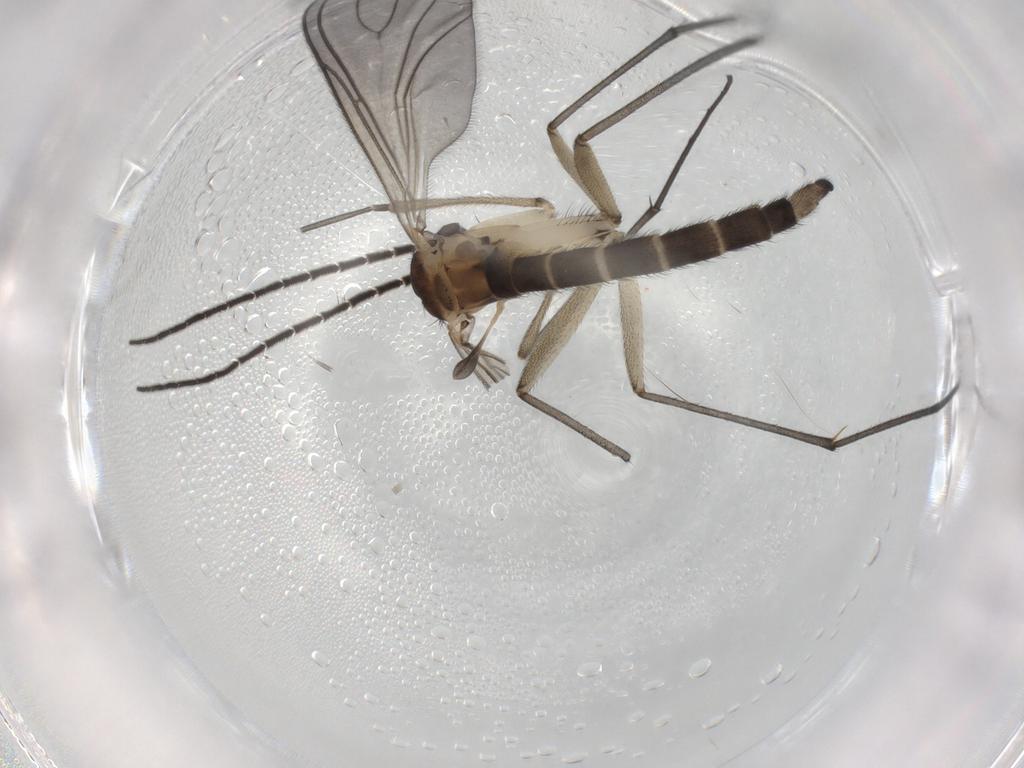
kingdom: Animalia
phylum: Arthropoda
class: Insecta
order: Diptera
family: Sciaridae
